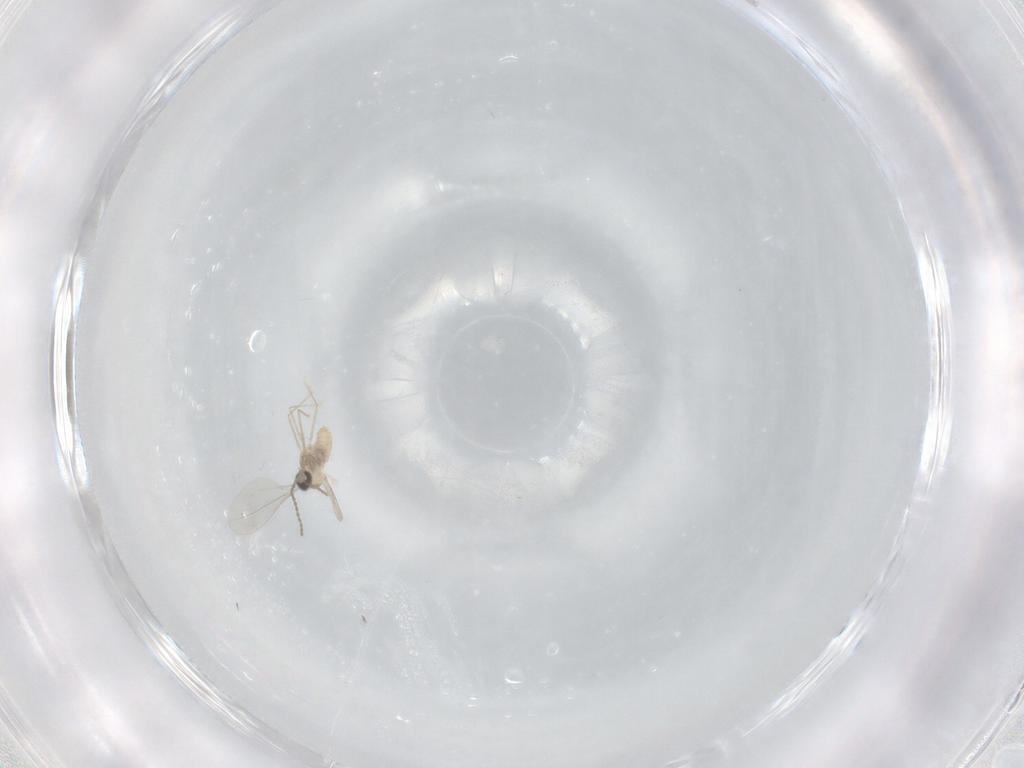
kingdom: Animalia
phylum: Arthropoda
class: Insecta
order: Diptera
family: Cecidomyiidae
